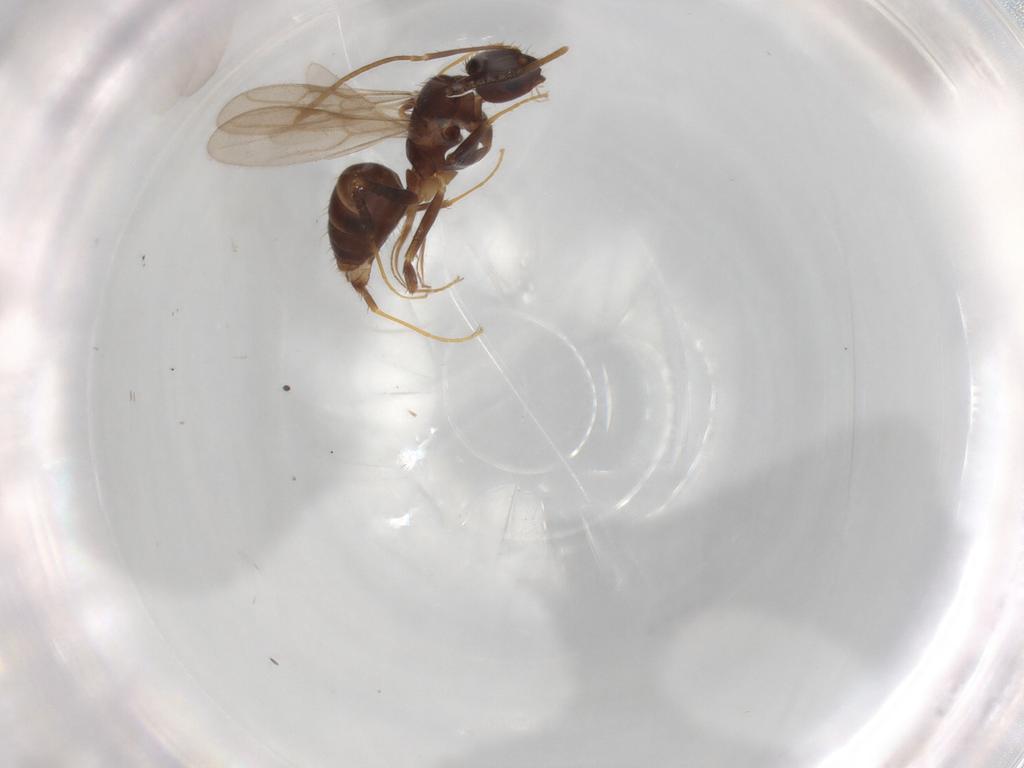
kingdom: Animalia
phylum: Arthropoda
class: Insecta
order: Hymenoptera
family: Formicidae
